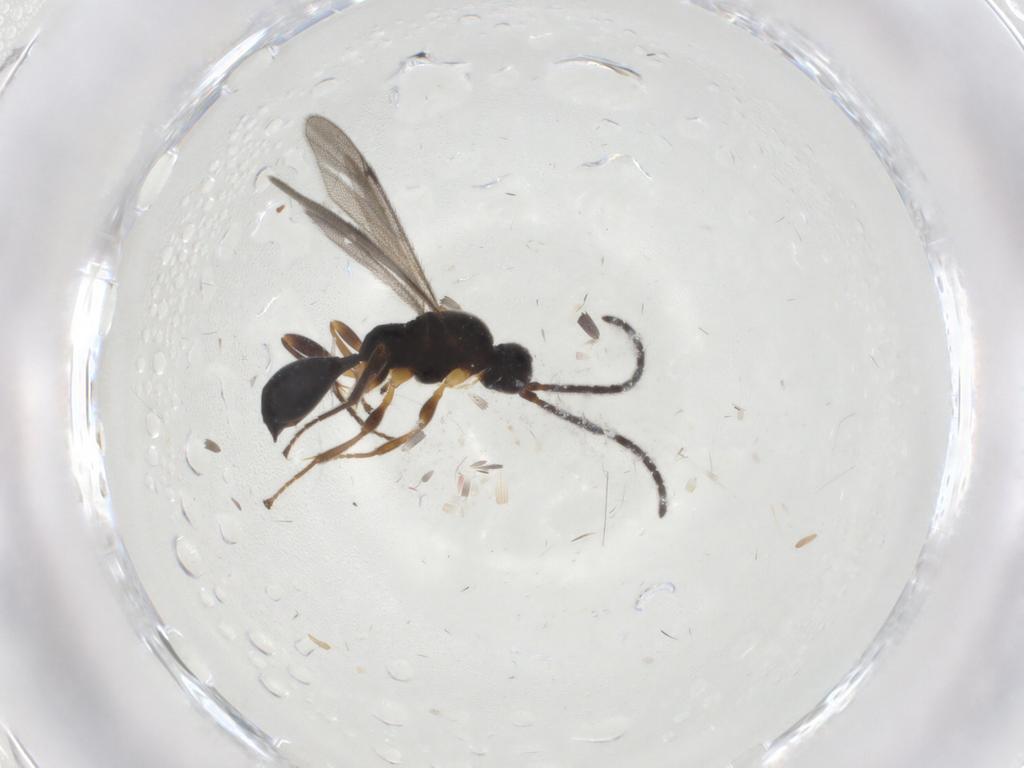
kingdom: Animalia
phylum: Arthropoda
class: Insecta
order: Hymenoptera
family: Proctotrupidae
